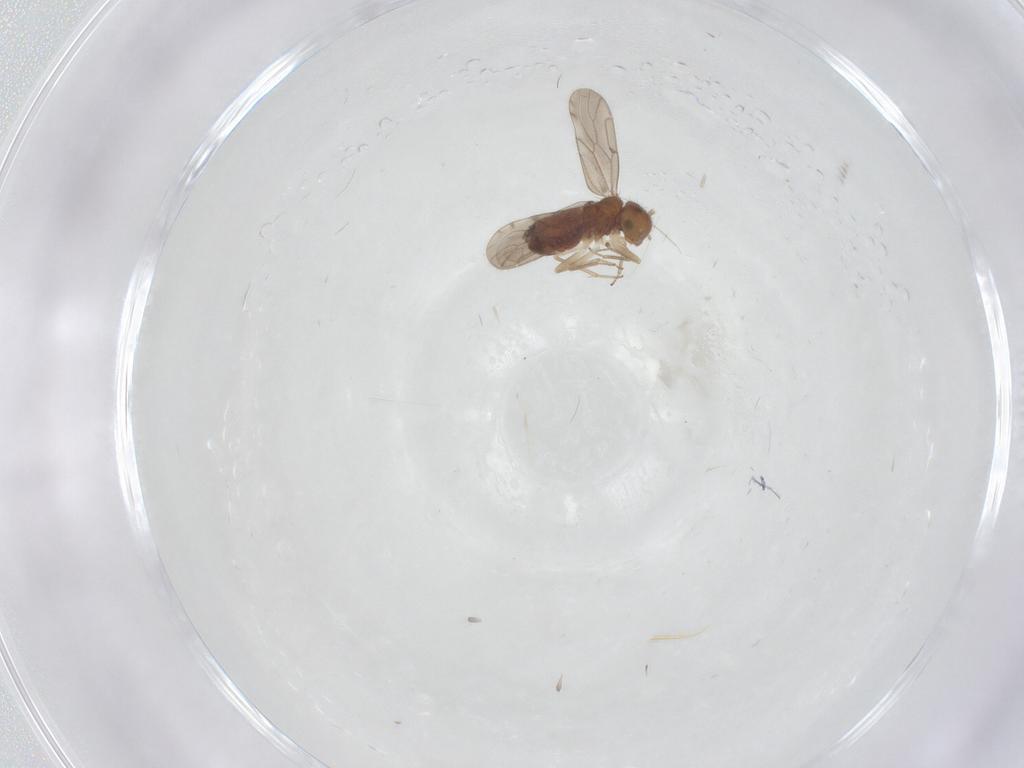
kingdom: Animalia
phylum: Arthropoda
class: Insecta
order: Psocodea
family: Ectopsocidae
